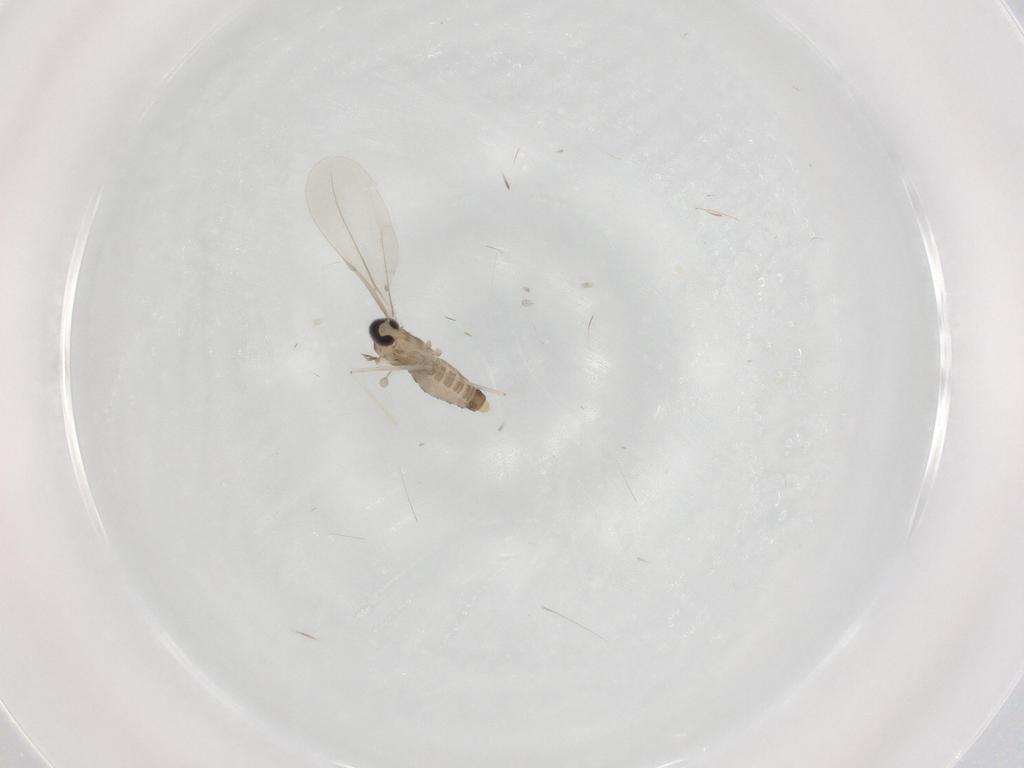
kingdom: Animalia
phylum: Arthropoda
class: Insecta
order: Diptera
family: Cecidomyiidae
